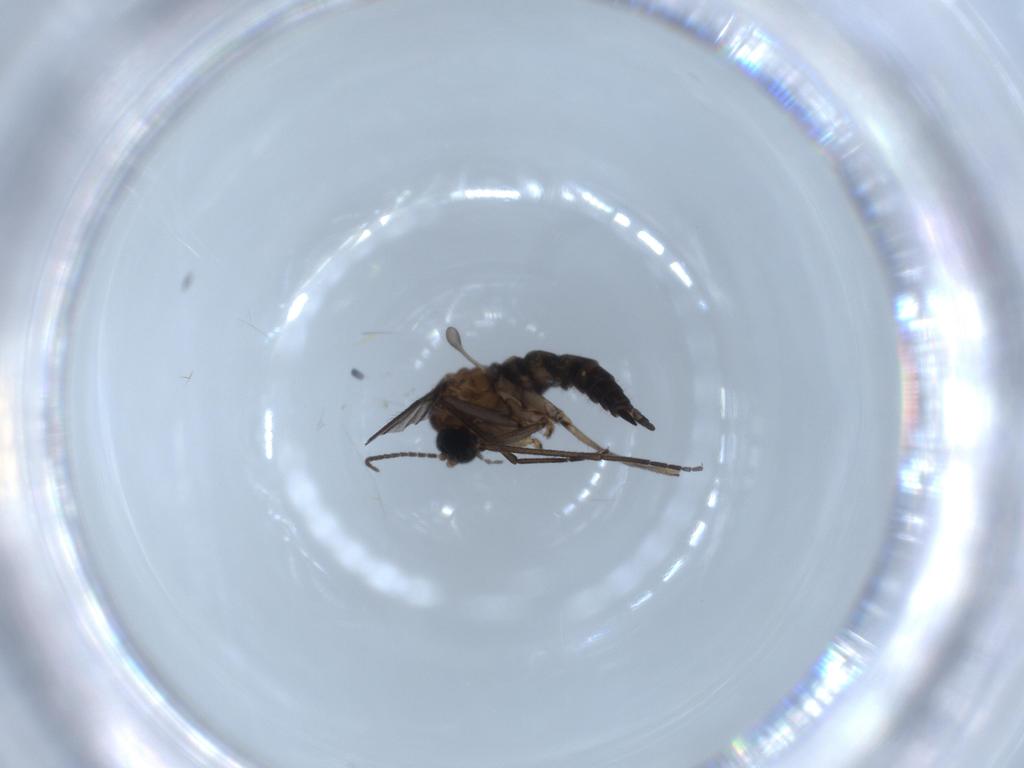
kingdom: Animalia
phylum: Arthropoda
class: Insecta
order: Diptera
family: Sciaridae
